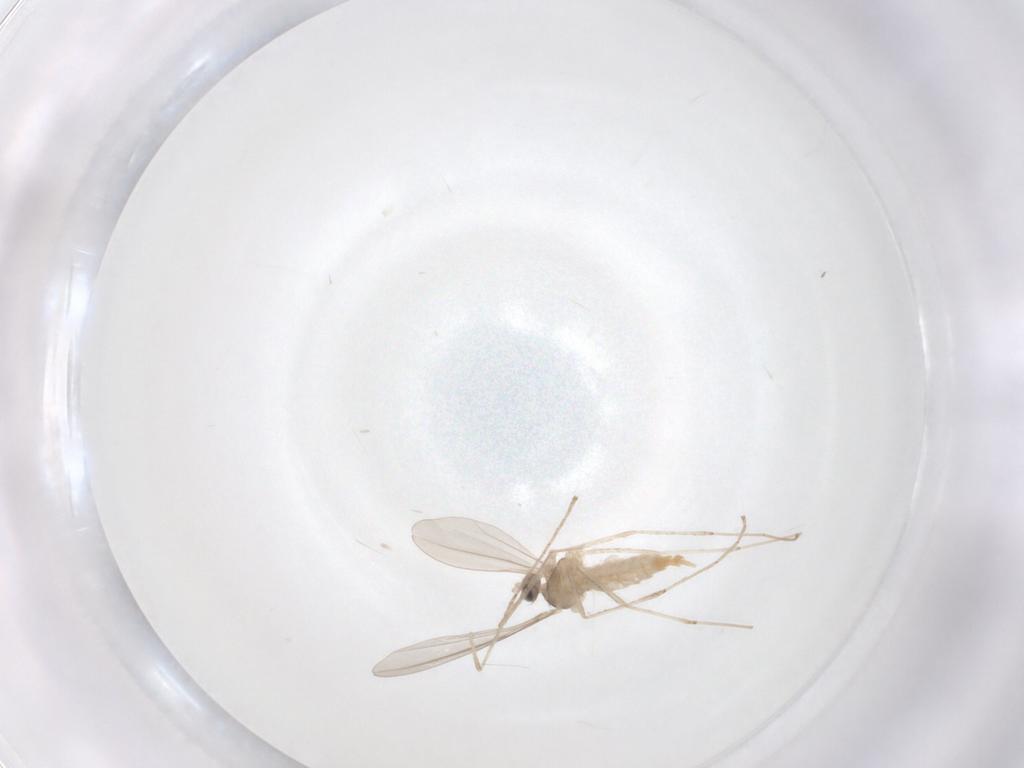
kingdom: Animalia
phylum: Arthropoda
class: Insecta
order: Diptera
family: Cecidomyiidae
